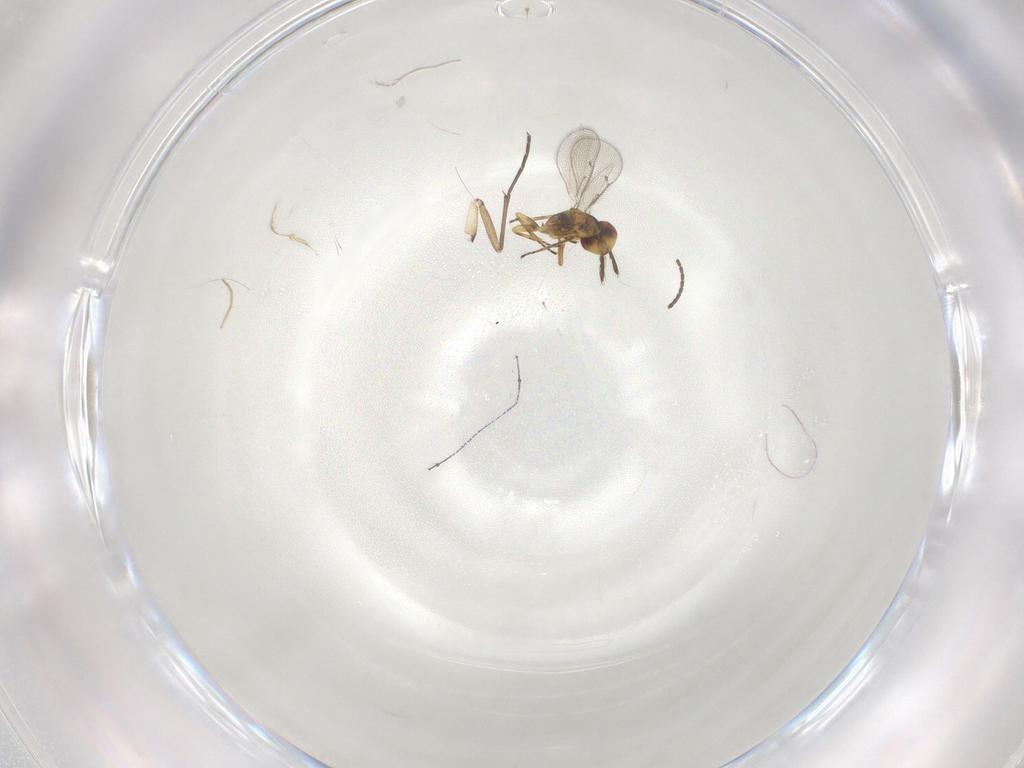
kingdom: Animalia
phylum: Arthropoda
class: Insecta
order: Hymenoptera
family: Eulophidae
